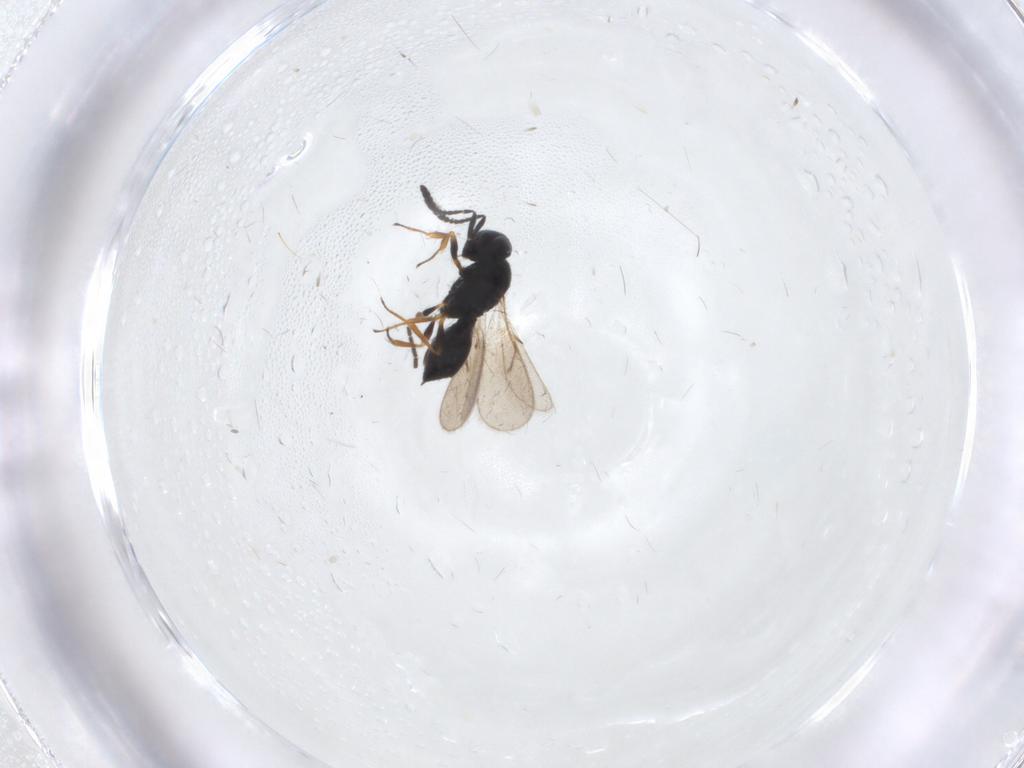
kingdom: Animalia
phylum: Arthropoda
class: Insecta
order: Hymenoptera
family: Scelionidae
